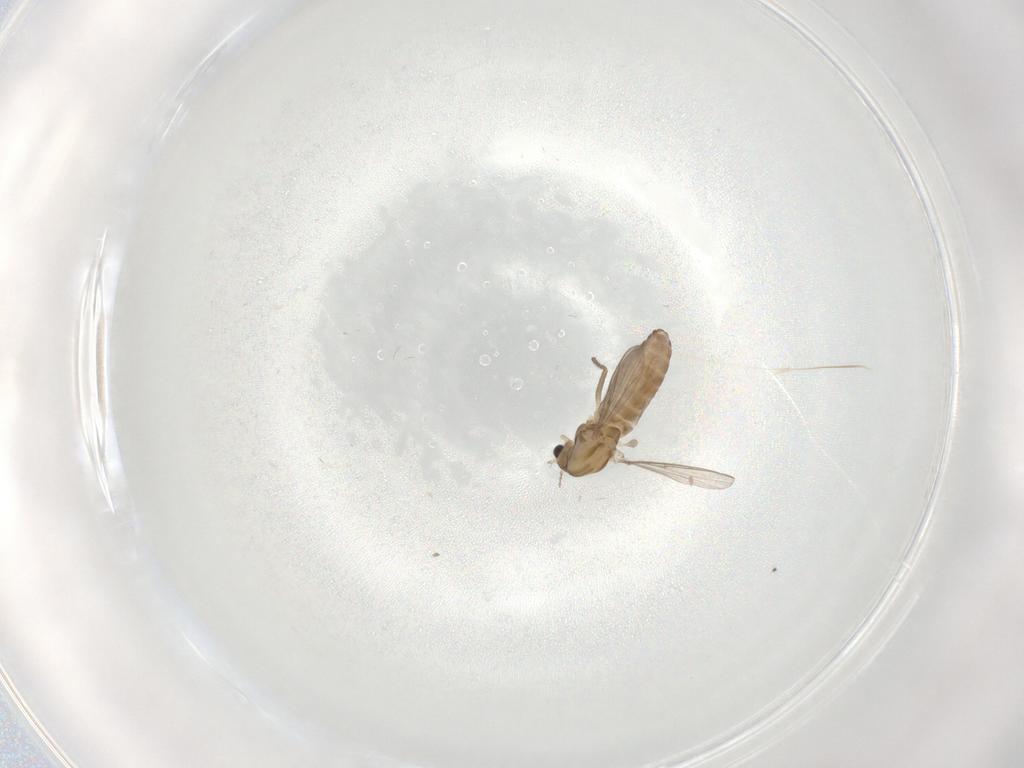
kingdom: Animalia
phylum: Arthropoda
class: Insecta
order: Diptera
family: Chironomidae
